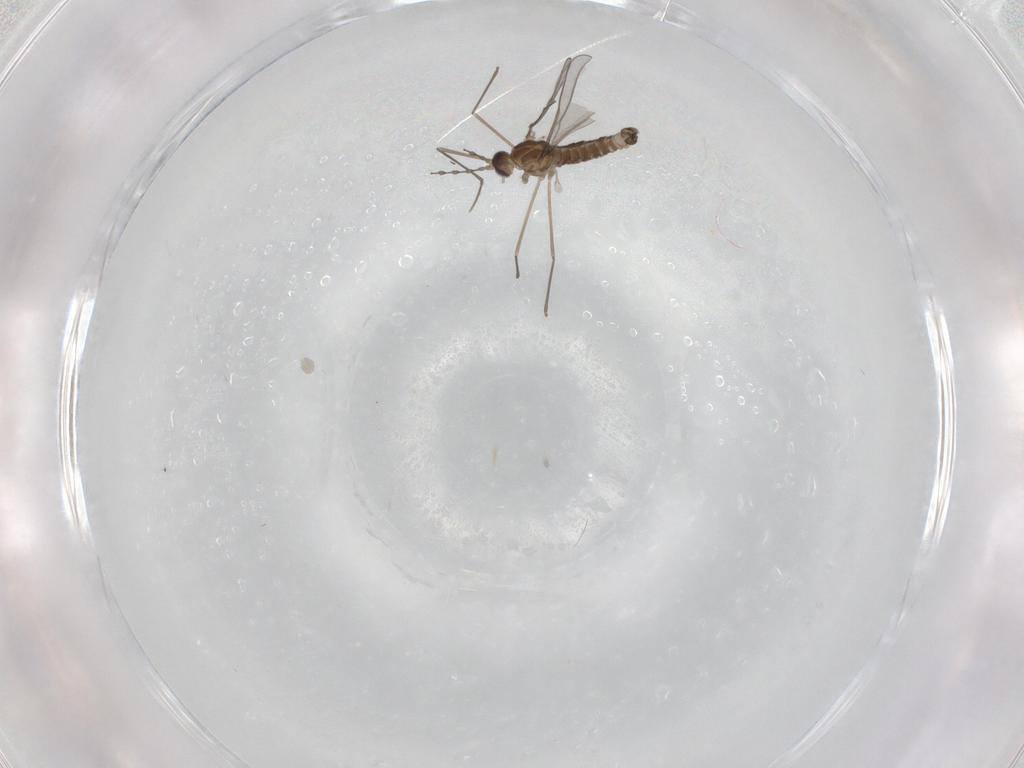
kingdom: Animalia
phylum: Arthropoda
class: Insecta
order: Diptera
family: Cecidomyiidae
